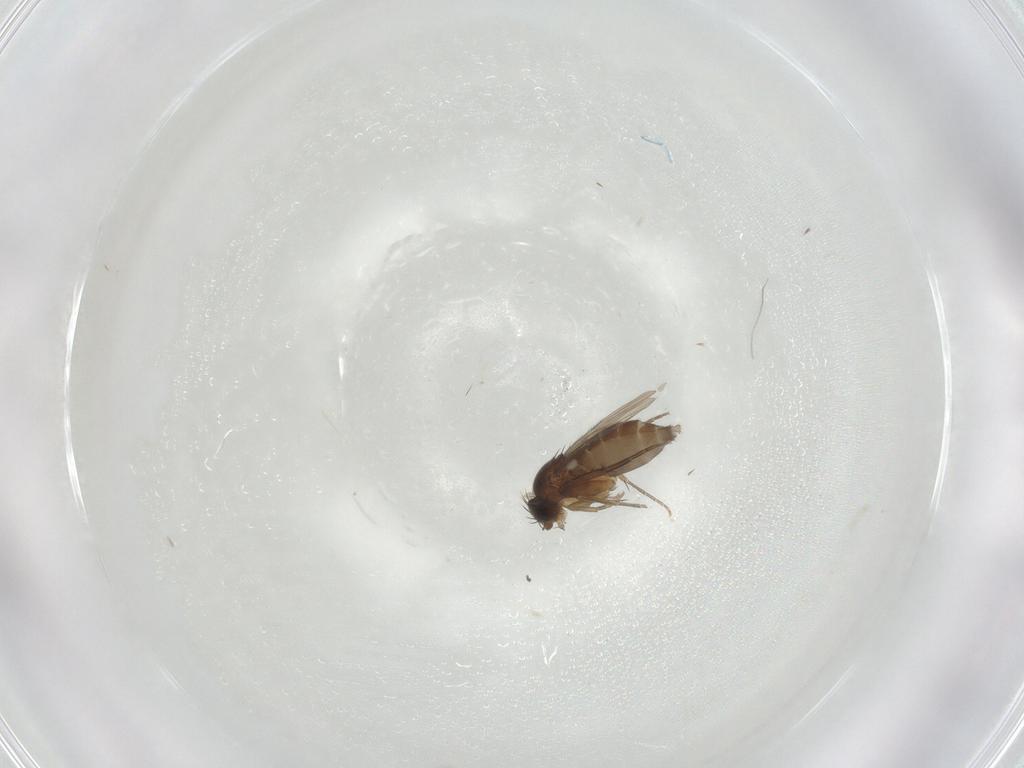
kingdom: Animalia
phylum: Arthropoda
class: Insecta
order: Diptera
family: Phoridae
